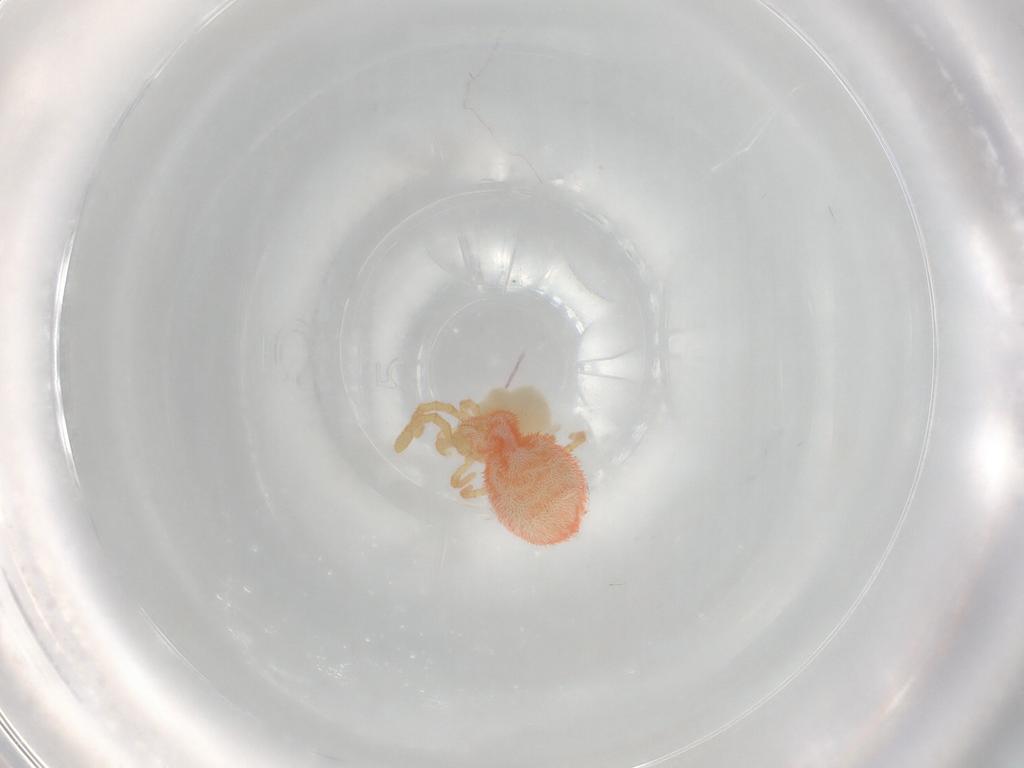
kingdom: Animalia
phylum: Arthropoda
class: Arachnida
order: Trombidiformes
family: Trombidiidae
